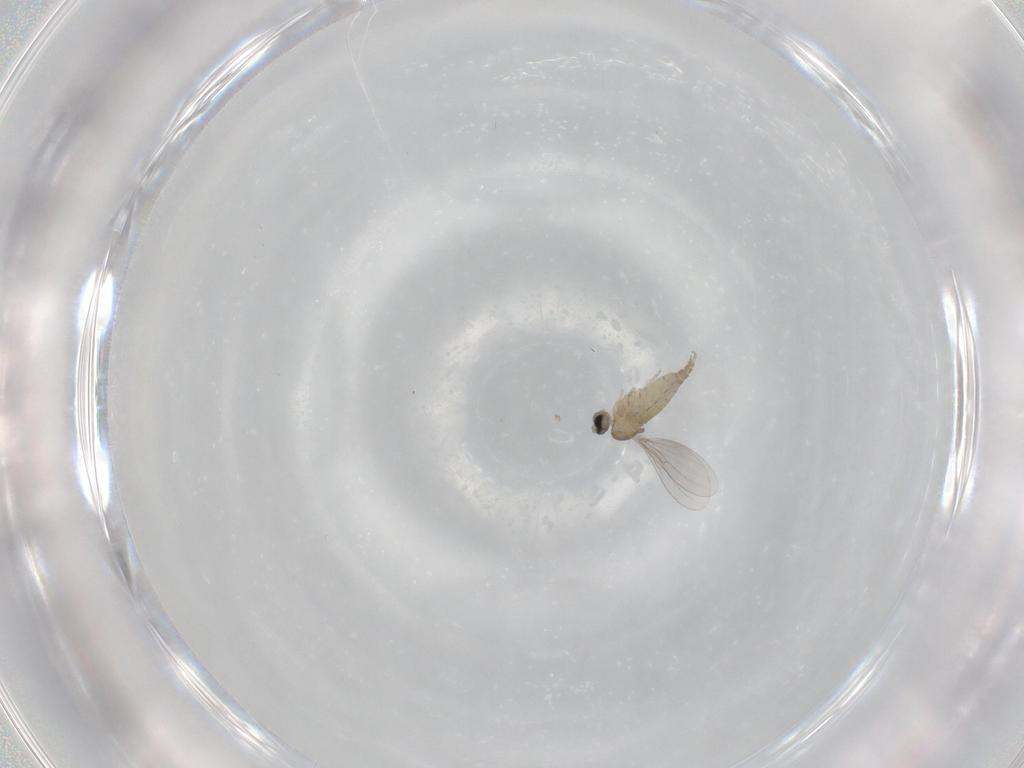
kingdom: Animalia
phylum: Arthropoda
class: Insecta
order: Diptera
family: Cecidomyiidae
